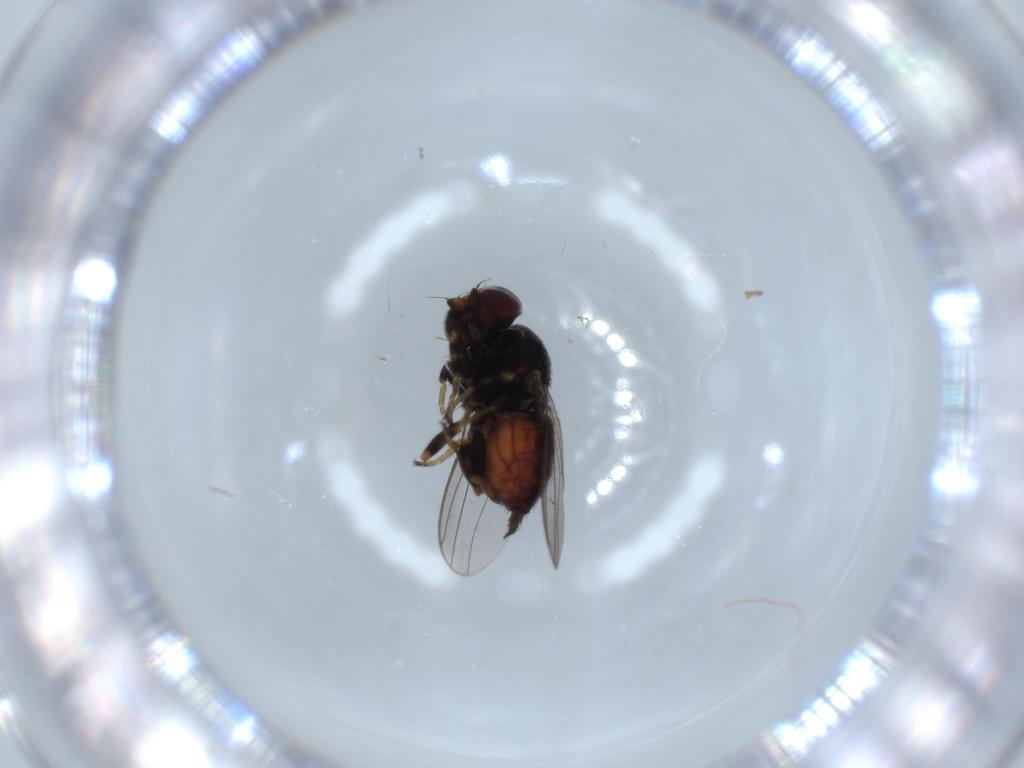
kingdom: Animalia
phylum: Arthropoda
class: Insecta
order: Diptera
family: Chloropidae
